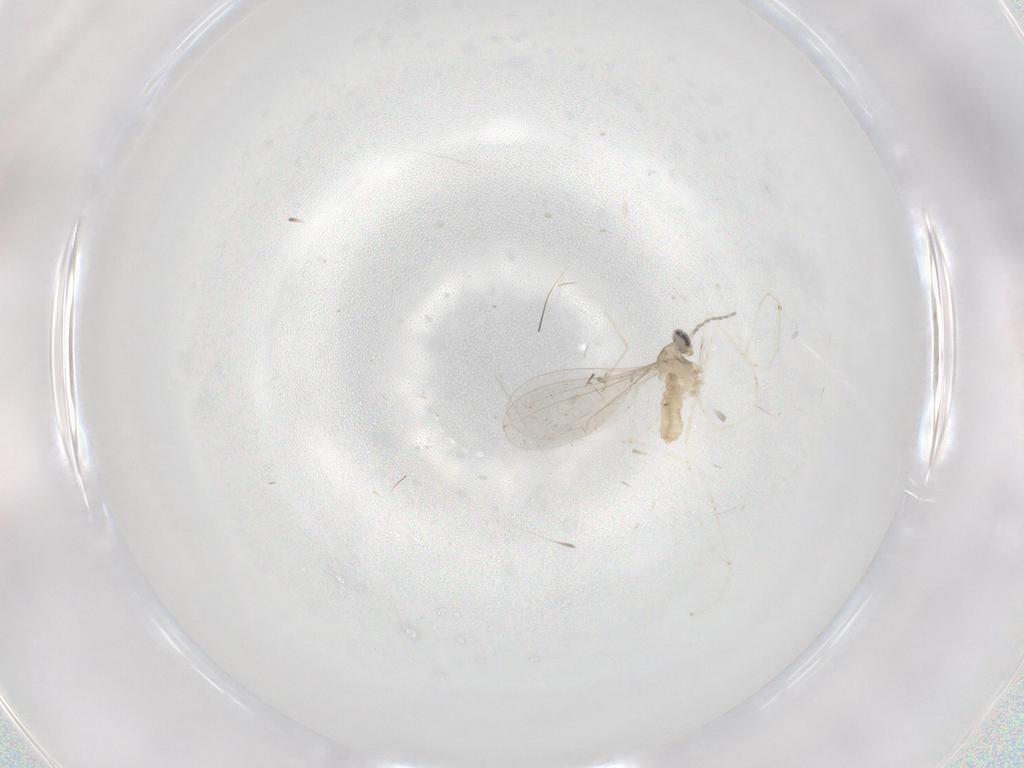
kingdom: Animalia
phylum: Arthropoda
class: Insecta
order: Diptera
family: Cecidomyiidae
